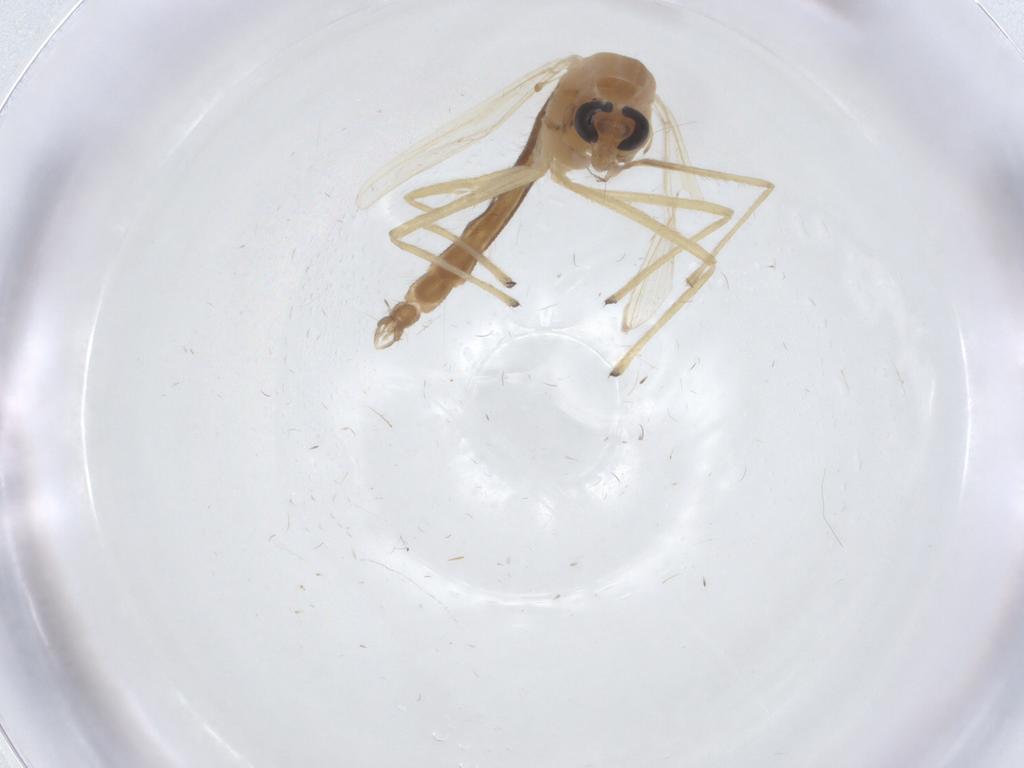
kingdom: Animalia
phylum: Arthropoda
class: Insecta
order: Diptera
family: Chironomidae
